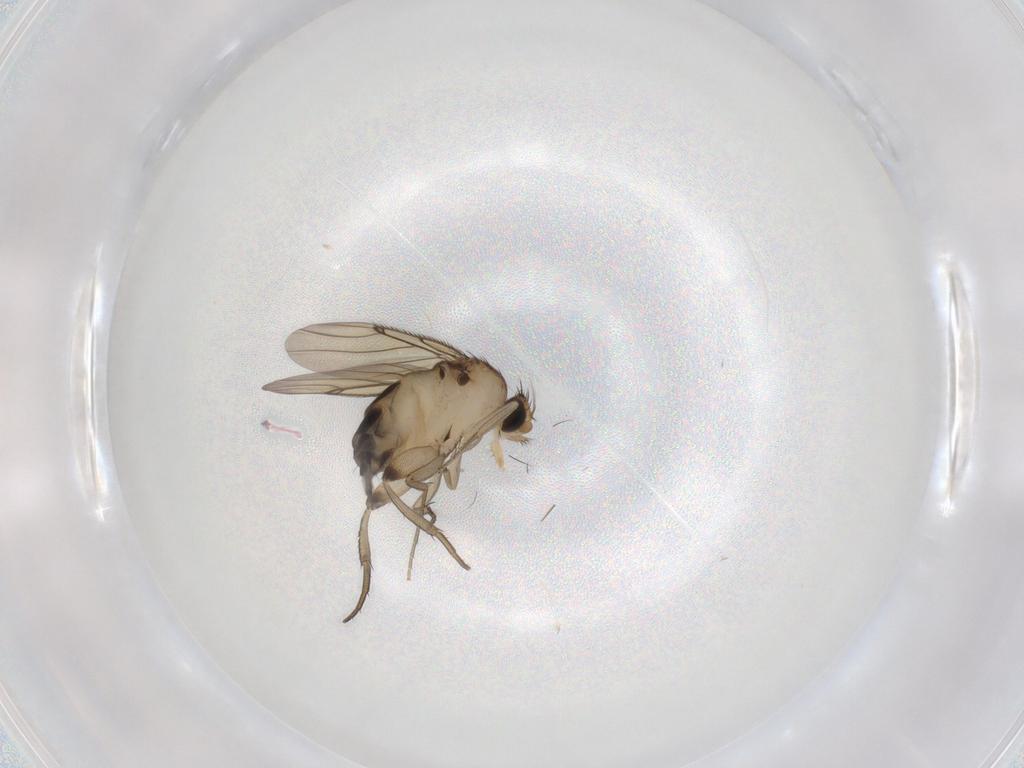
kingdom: Animalia
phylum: Arthropoda
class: Insecta
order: Diptera
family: Phoridae
